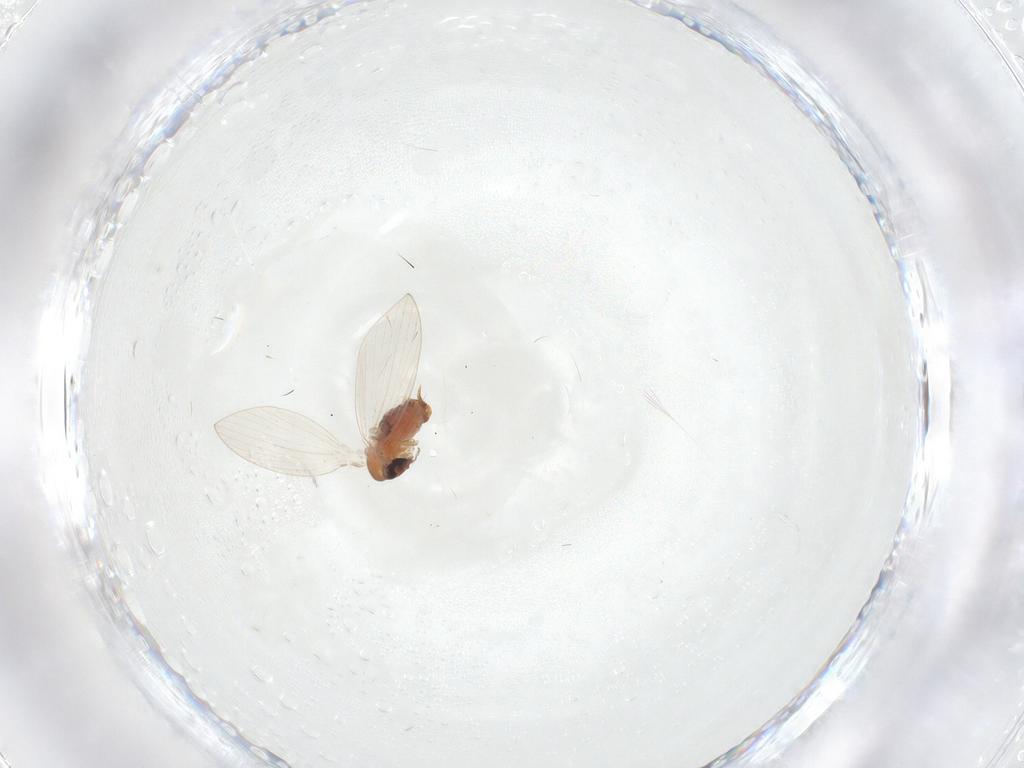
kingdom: Animalia
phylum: Arthropoda
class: Insecta
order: Diptera
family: Psychodidae
